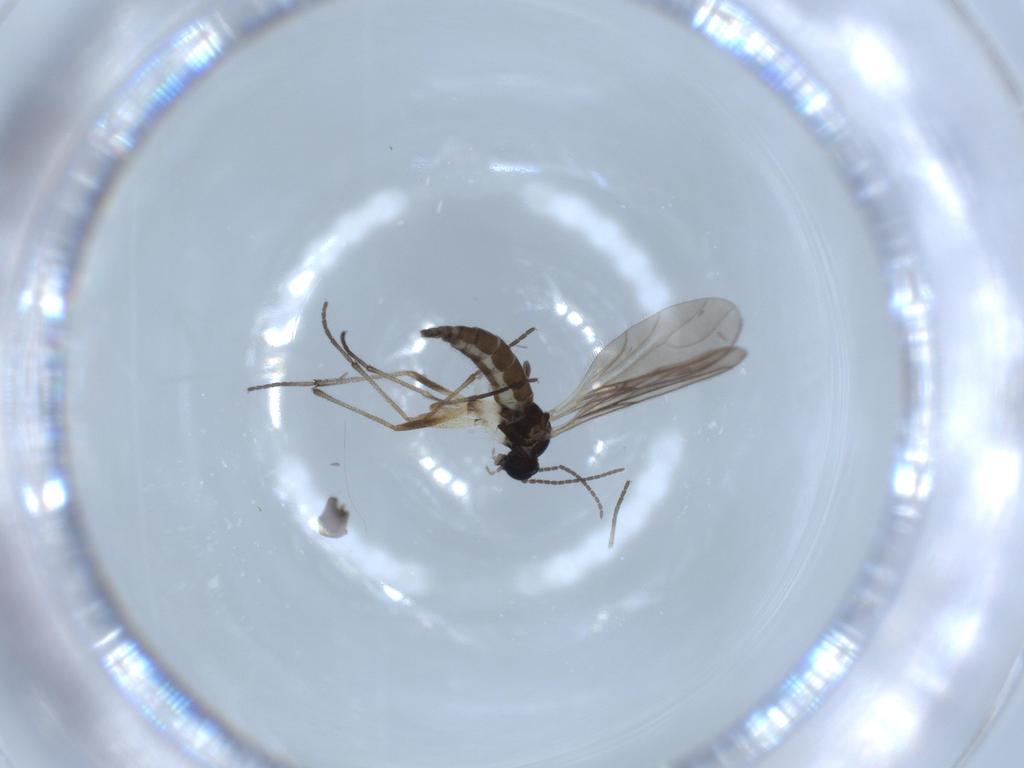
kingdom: Animalia
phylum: Arthropoda
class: Insecta
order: Diptera
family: Sciaridae
